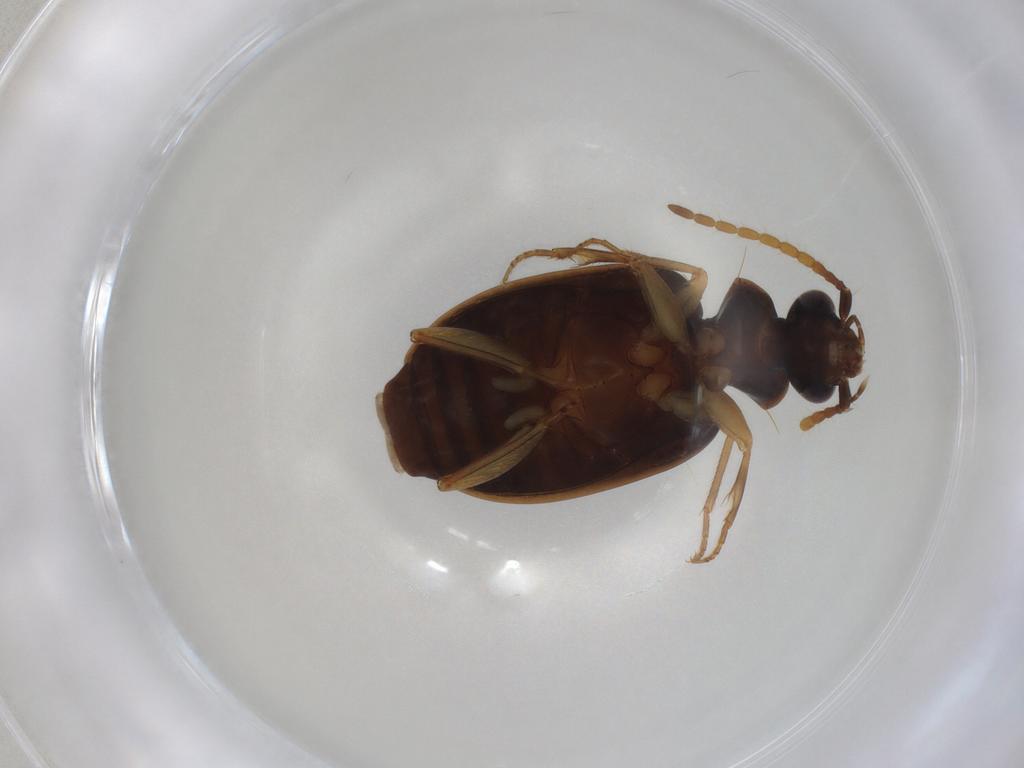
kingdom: Animalia
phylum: Arthropoda
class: Insecta
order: Coleoptera
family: Carabidae
